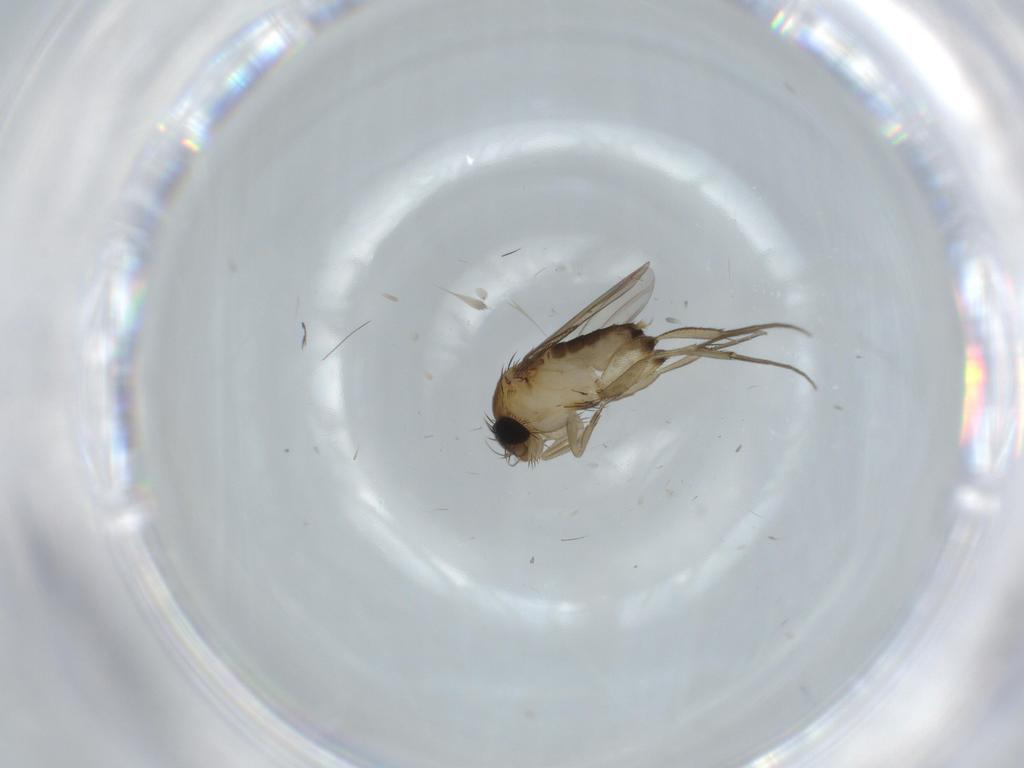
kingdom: Animalia
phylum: Arthropoda
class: Insecta
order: Diptera
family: Phoridae
